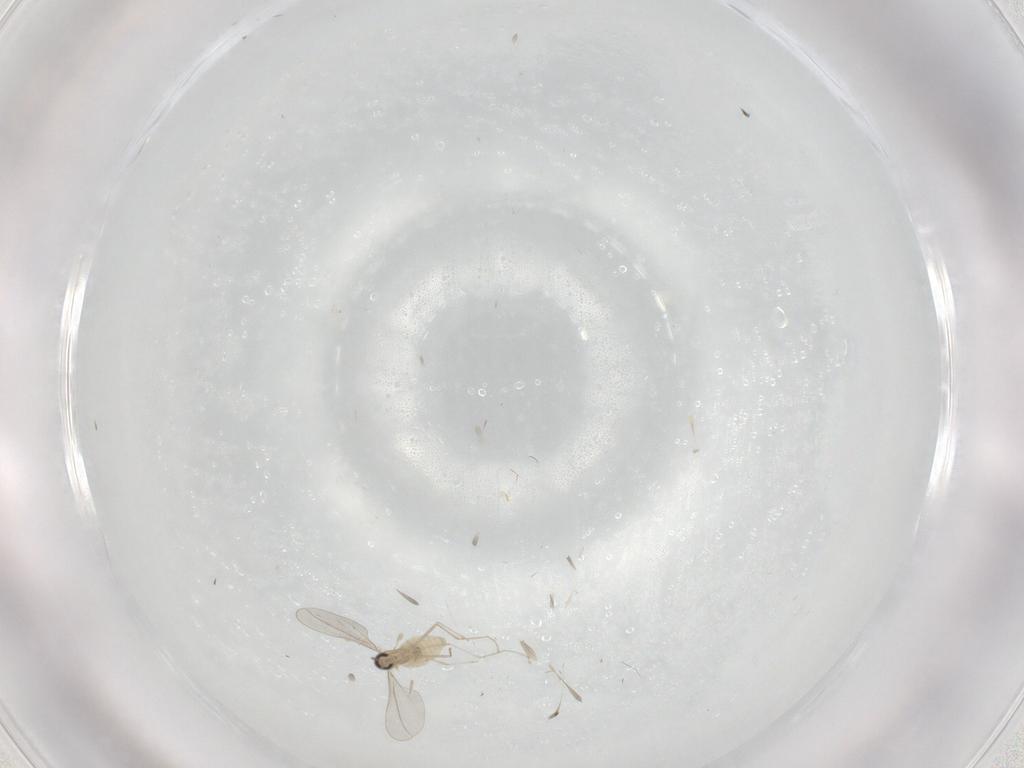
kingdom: Animalia
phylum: Arthropoda
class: Insecta
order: Diptera
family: Cecidomyiidae
